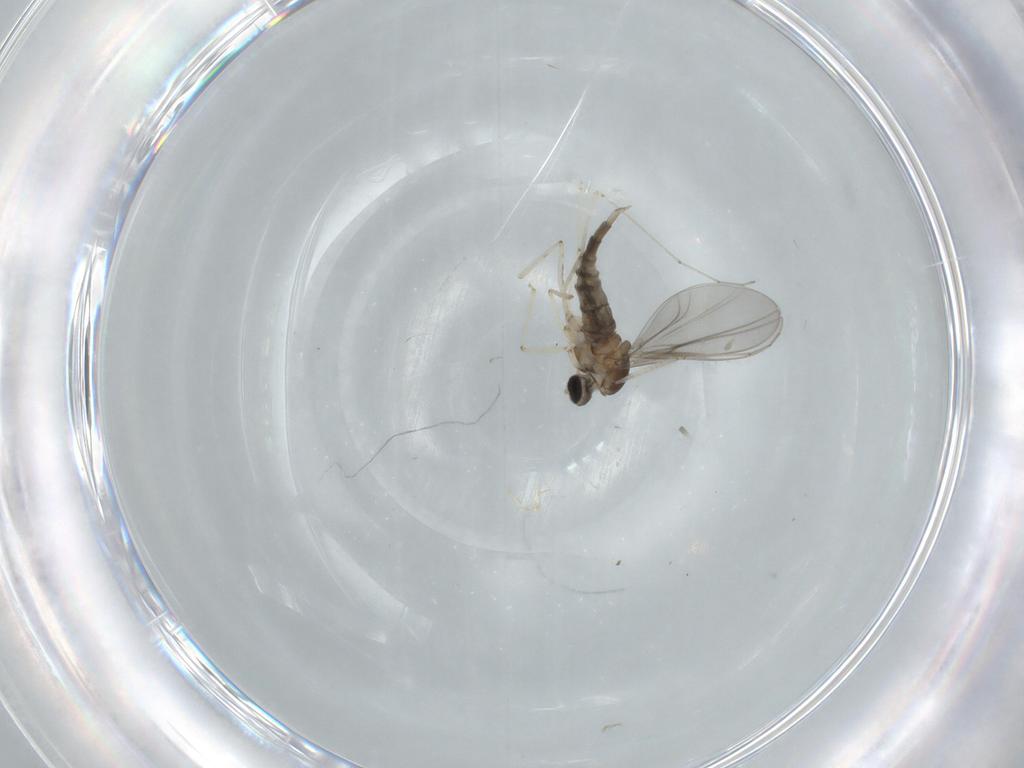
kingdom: Animalia
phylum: Arthropoda
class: Insecta
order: Diptera
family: Cecidomyiidae
